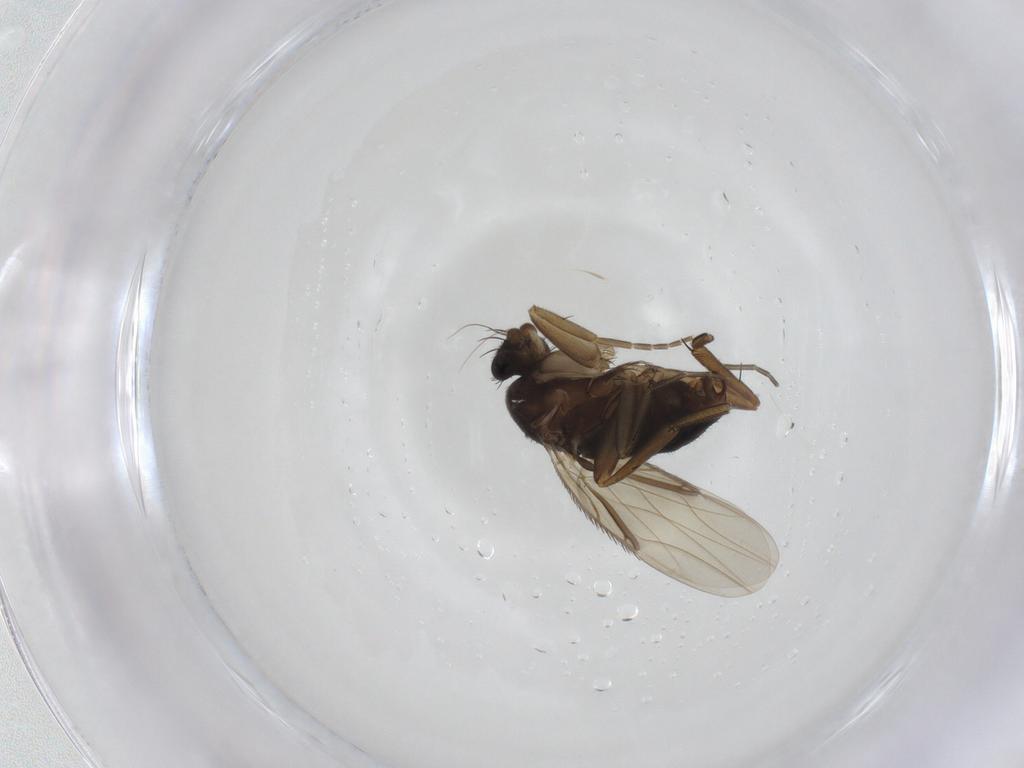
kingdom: Animalia
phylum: Arthropoda
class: Insecta
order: Diptera
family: Phoridae
